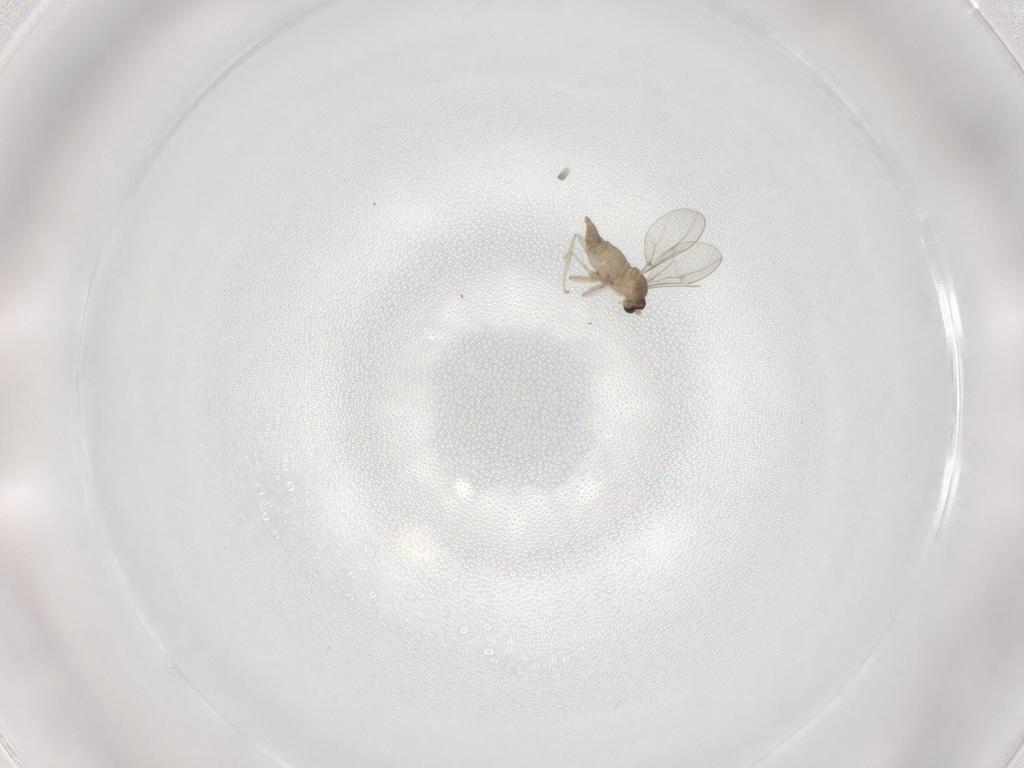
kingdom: Animalia
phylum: Arthropoda
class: Insecta
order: Diptera
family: Cecidomyiidae
